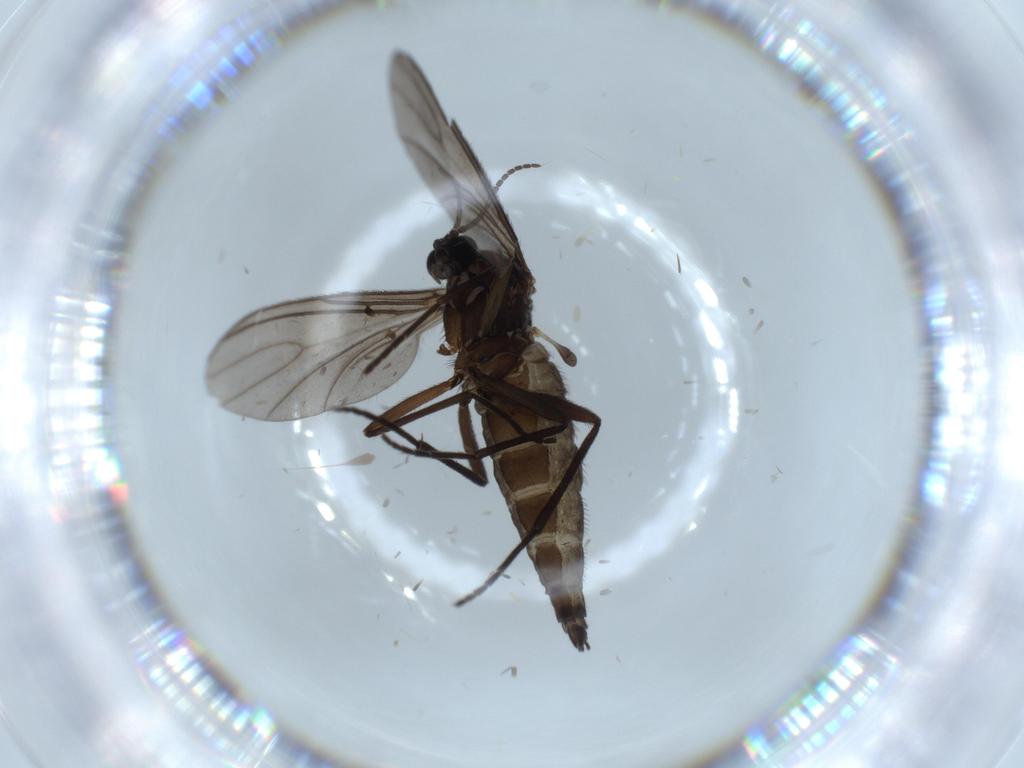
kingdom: Animalia
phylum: Arthropoda
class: Insecta
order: Diptera
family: Sciaridae
